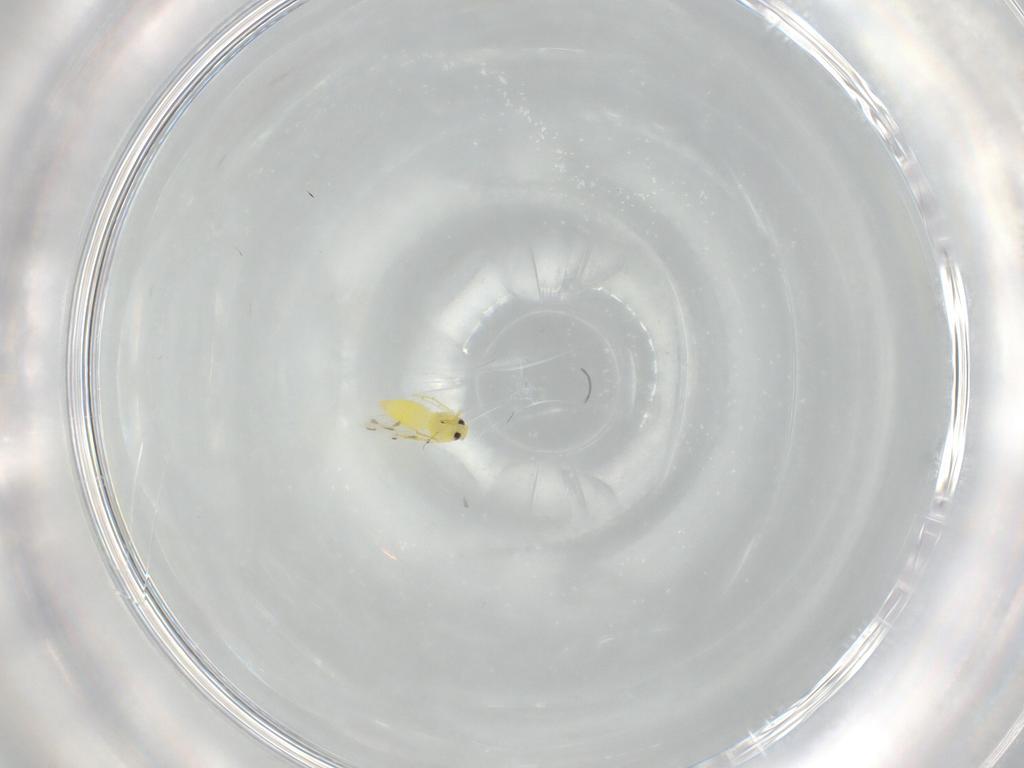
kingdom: Animalia
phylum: Arthropoda
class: Insecta
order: Hemiptera
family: Aleyrodidae
